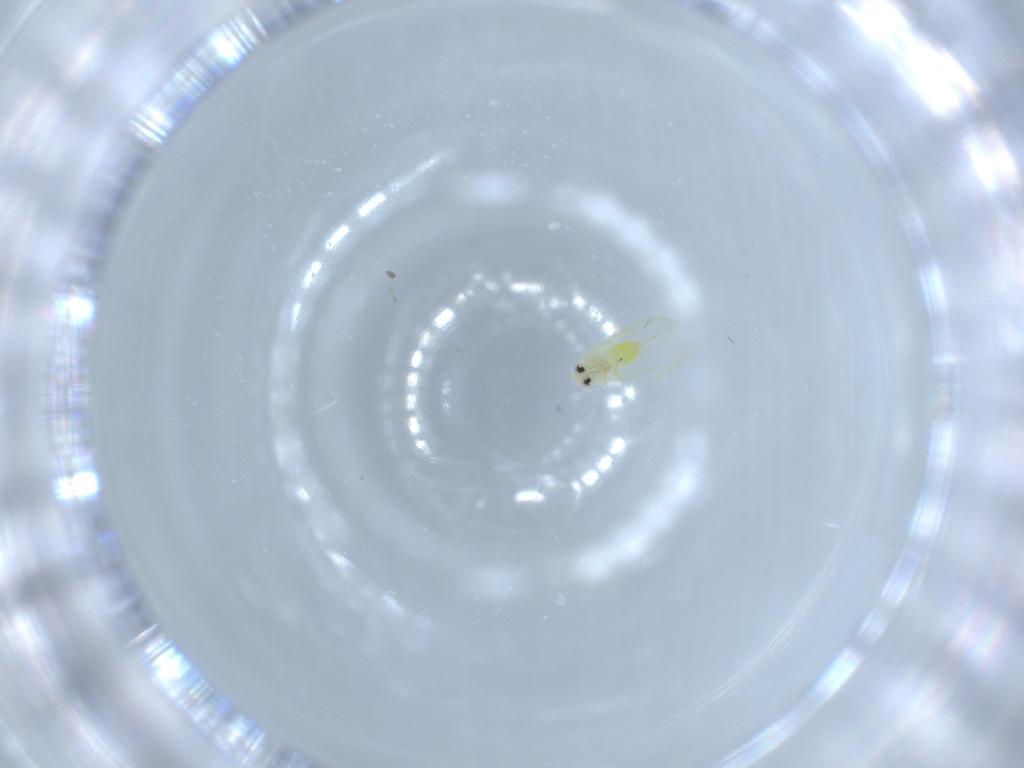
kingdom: Animalia
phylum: Arthropoda
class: Insecta
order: Hemiptera
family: Aleyrodidae
